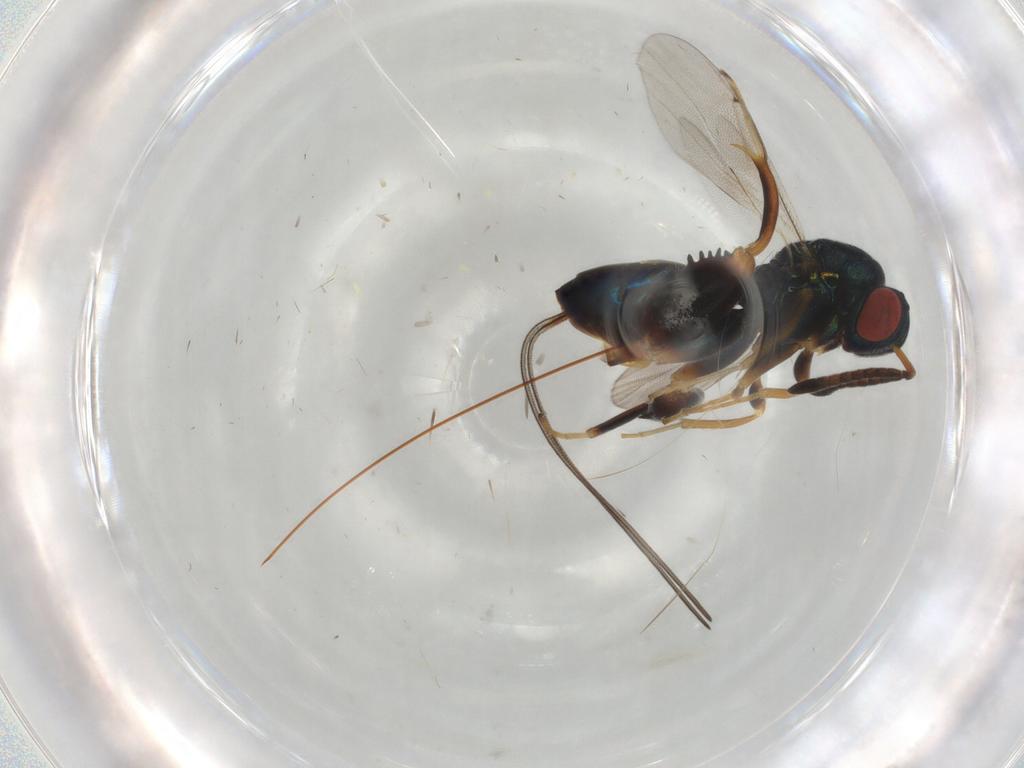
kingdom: Animalia
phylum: Arthropoda
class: Insecta
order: Hymenoptera
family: Torymidae
